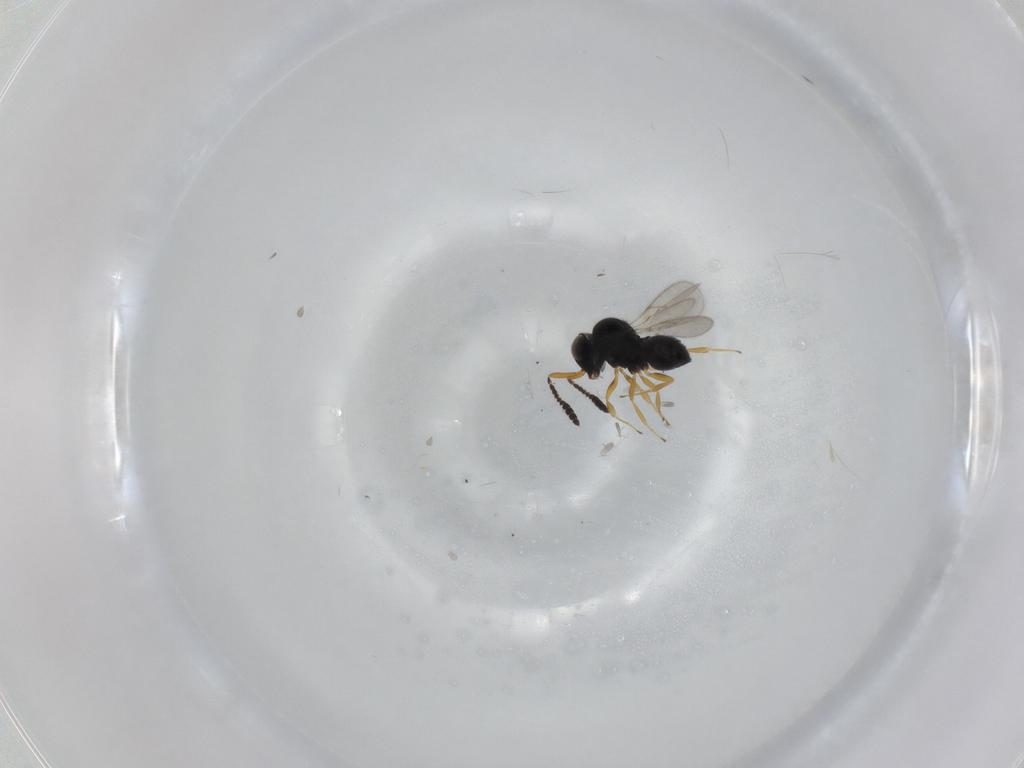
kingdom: Animalia
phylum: Arthropoda
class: Insecta
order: Hymenoptera
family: Scelionidae
